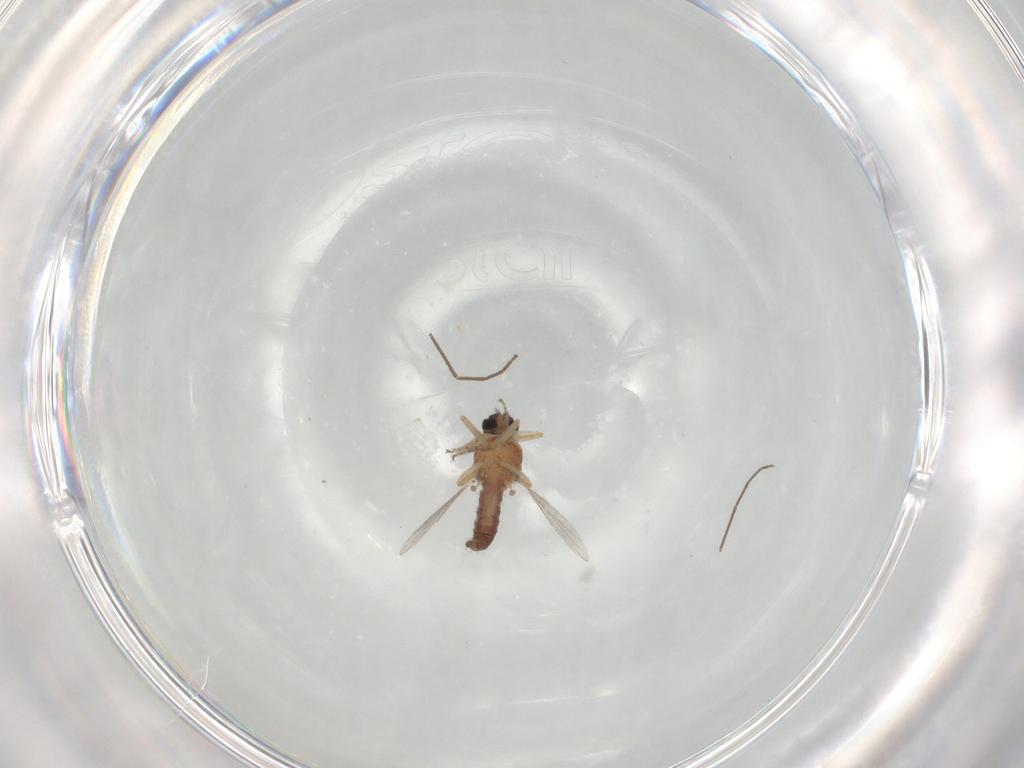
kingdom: Animalia
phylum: Arthropoda
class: Insecta
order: Diptera
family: Ceratopogonidae
